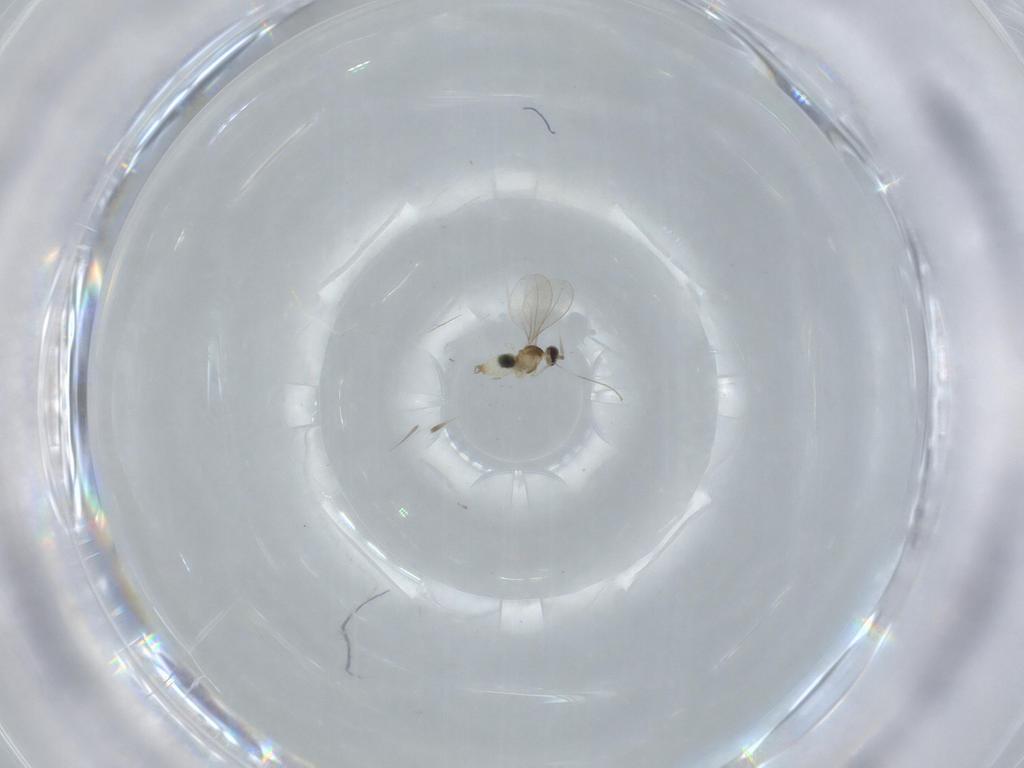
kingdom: Animalia
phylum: Arthropoda
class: Insecta
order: Diptera
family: Cecidomyiidae
